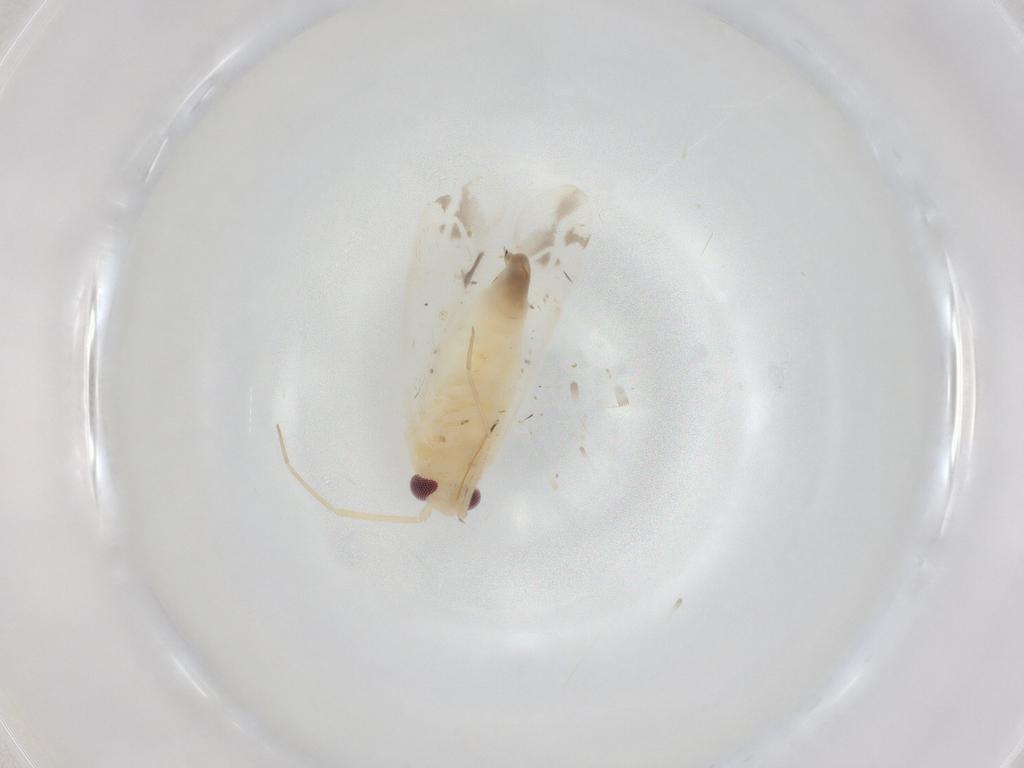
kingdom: Animalia
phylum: Arthropoda
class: Insecta
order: Hemiptera
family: Miridae
